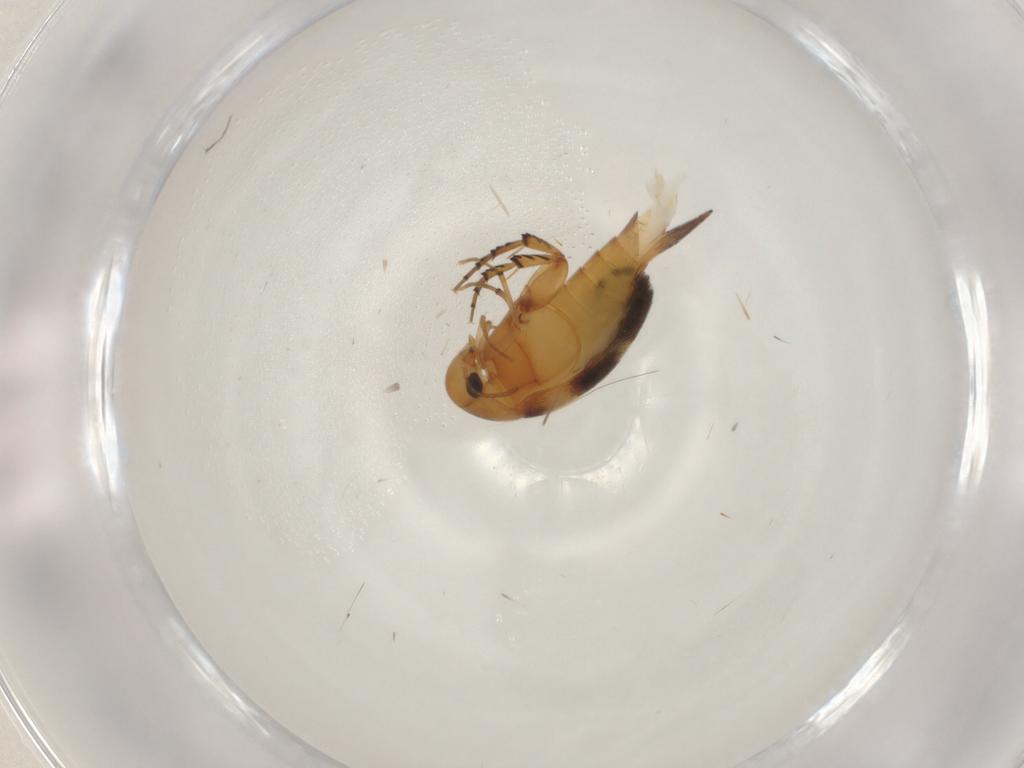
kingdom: Animalia
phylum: Arthropoda
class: Insecta
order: Coleoptera
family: Mordellidae
